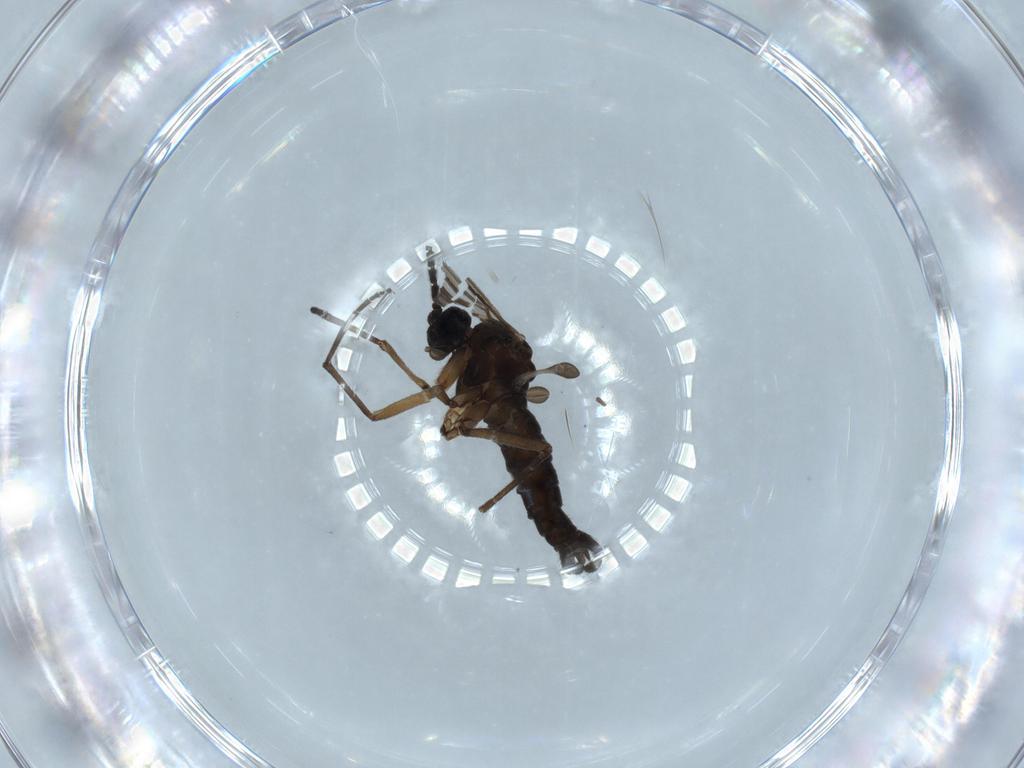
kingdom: Animalia
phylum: Arthropoda
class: Insecta
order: Diptera
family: Sciaridae
